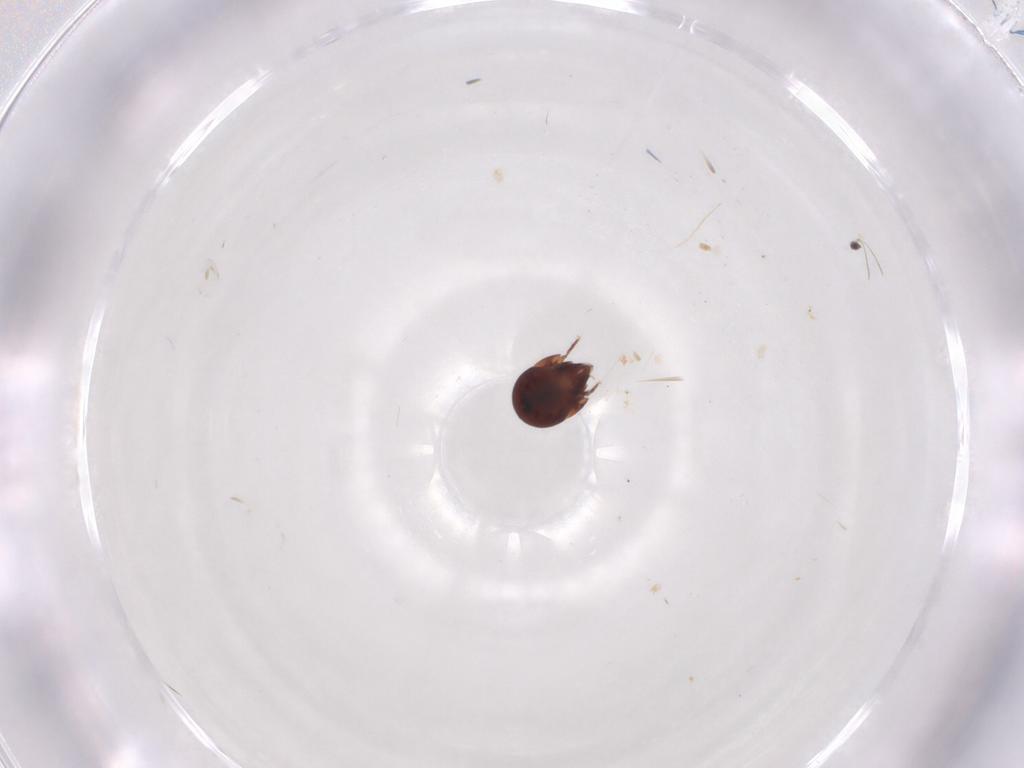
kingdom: Animalia
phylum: Arthropoda
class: Arachnida
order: Sarcoptiformes
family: Humerobatidae
